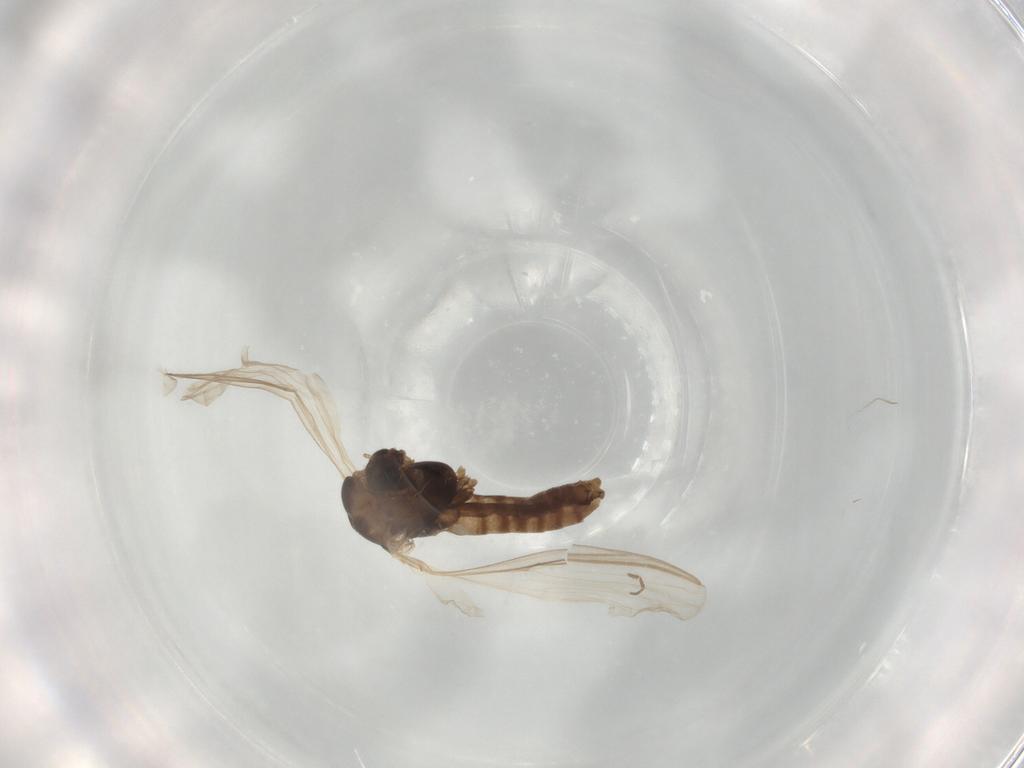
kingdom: Animalia
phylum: Arthropoda
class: Insecta
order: Diptera
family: Chironomidae
